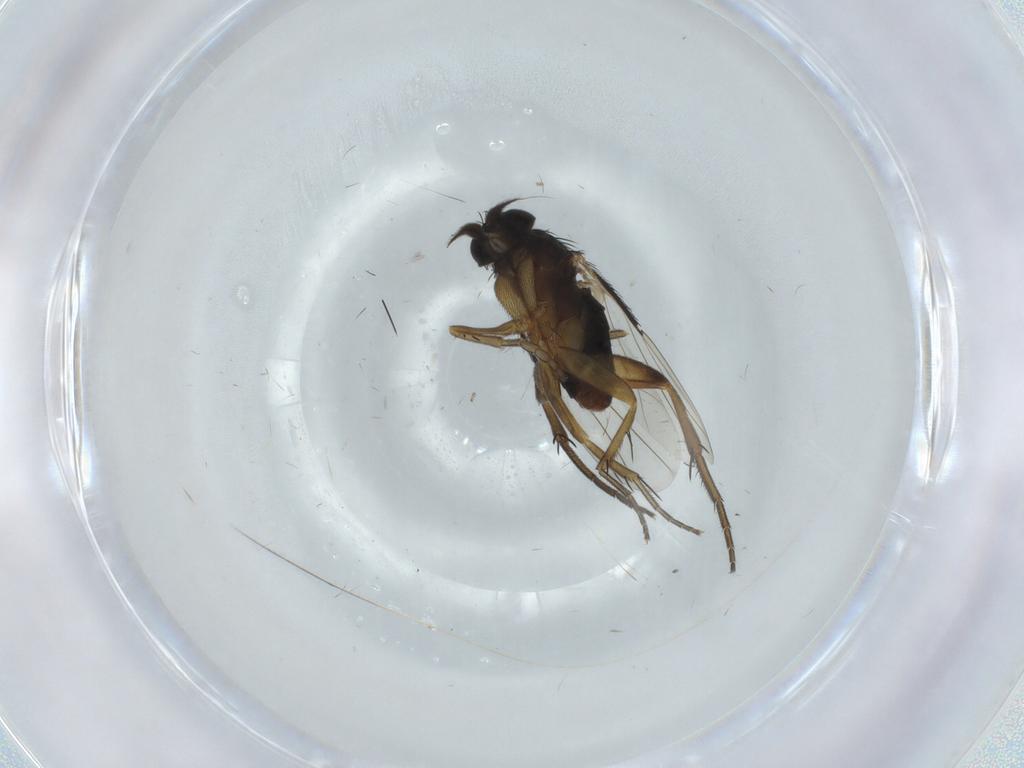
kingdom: Animalia
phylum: Arthropoda
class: Insecta
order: Diptera
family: Phoridae
